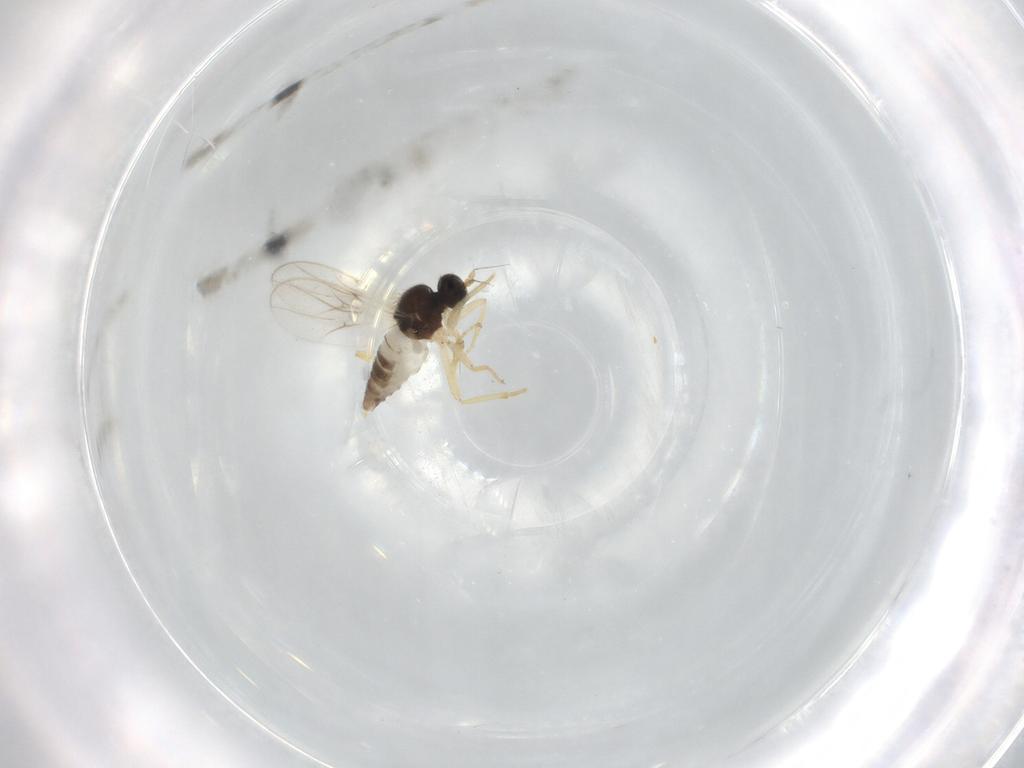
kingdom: Animalia
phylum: Arthropoda
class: Insecta
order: Diptera
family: Hybotidae
